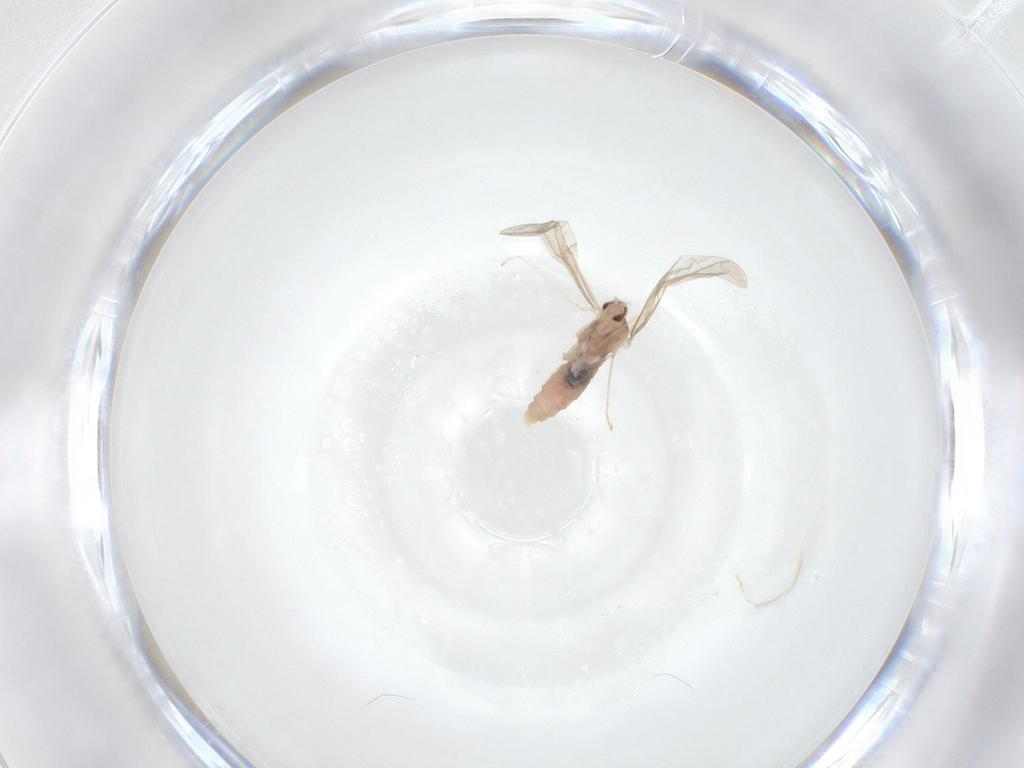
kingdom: Animalia
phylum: Arthropoda
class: Insecta
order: Diptera
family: Cecidomyiidae
